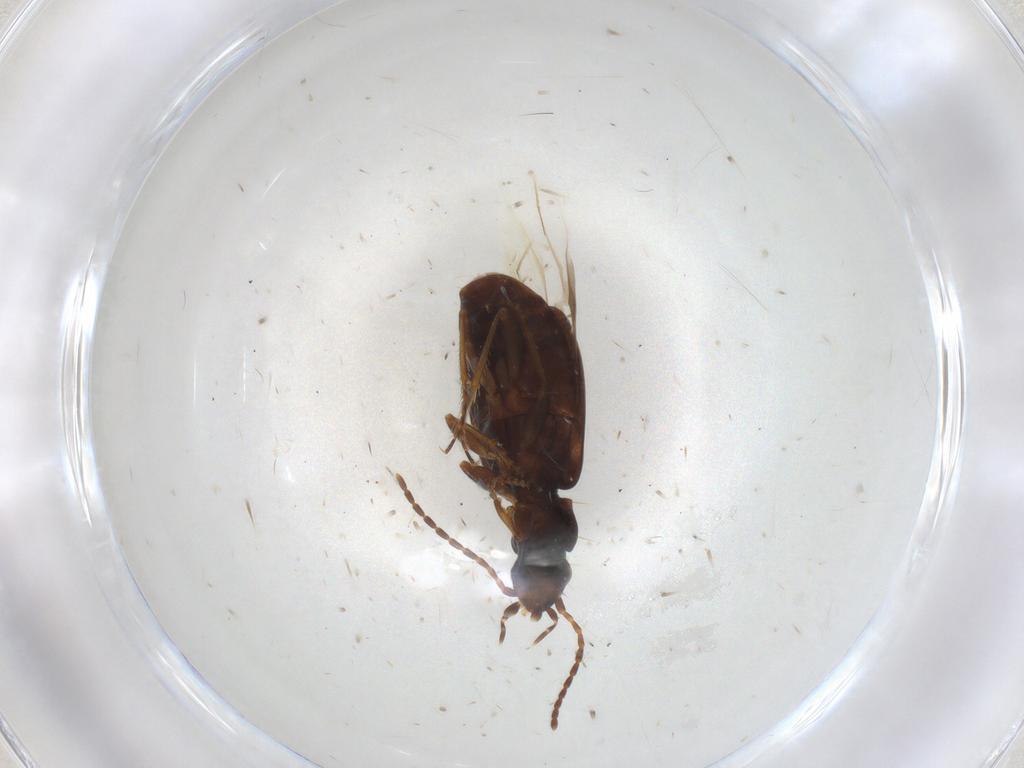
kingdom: Animalia
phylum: Arthropoda
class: Insecta
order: Coleoptera
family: Carabidae
